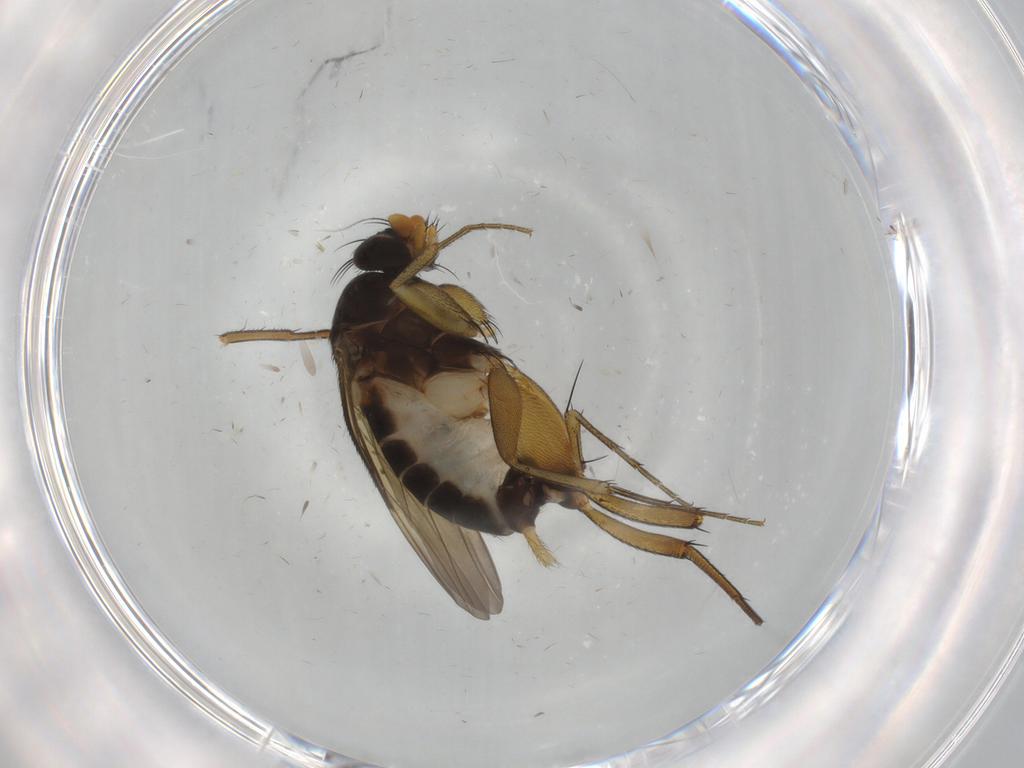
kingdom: Animalia
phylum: Arthropoda
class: Insecta
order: Diptera
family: Phoridae
